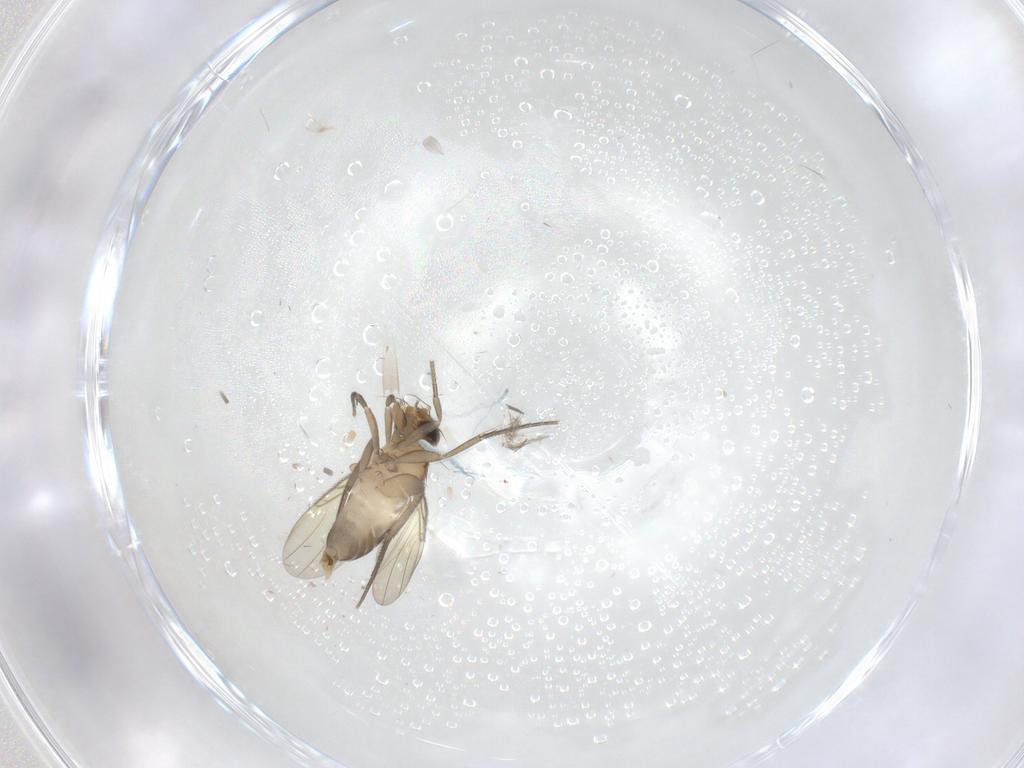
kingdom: Animalia
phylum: Arthropoda
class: Insecta
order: Diptera
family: Phoridae
